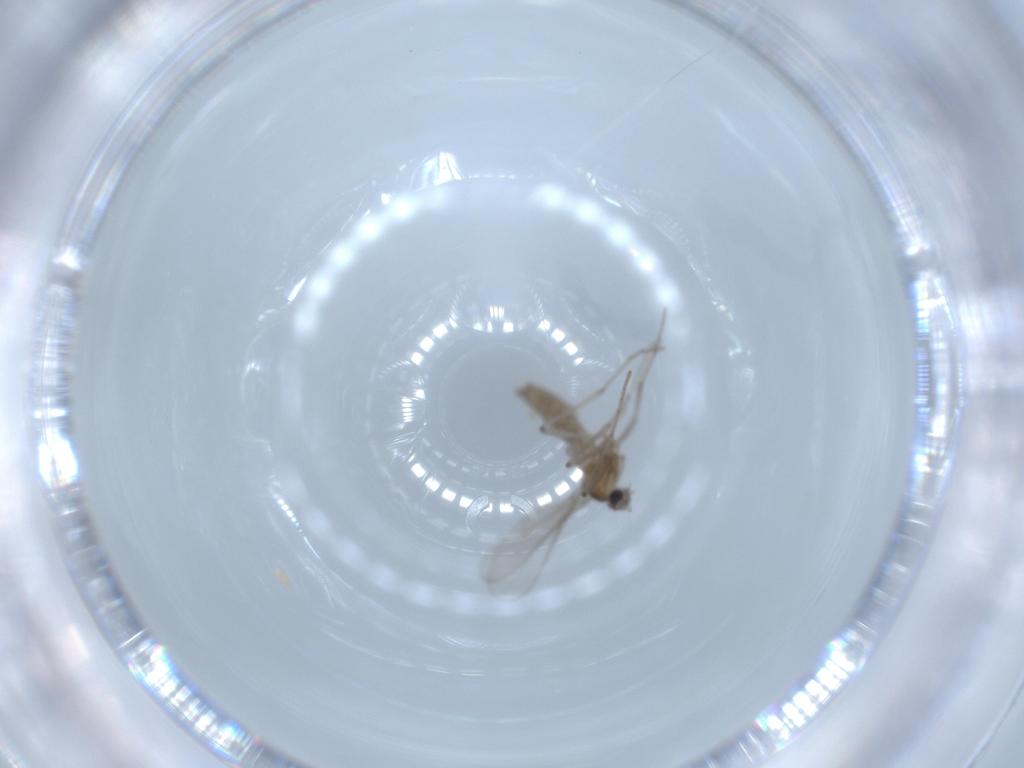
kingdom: Animalia
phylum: Arthropoda
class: Insecta
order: Diptera
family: Cecidomyiidae
